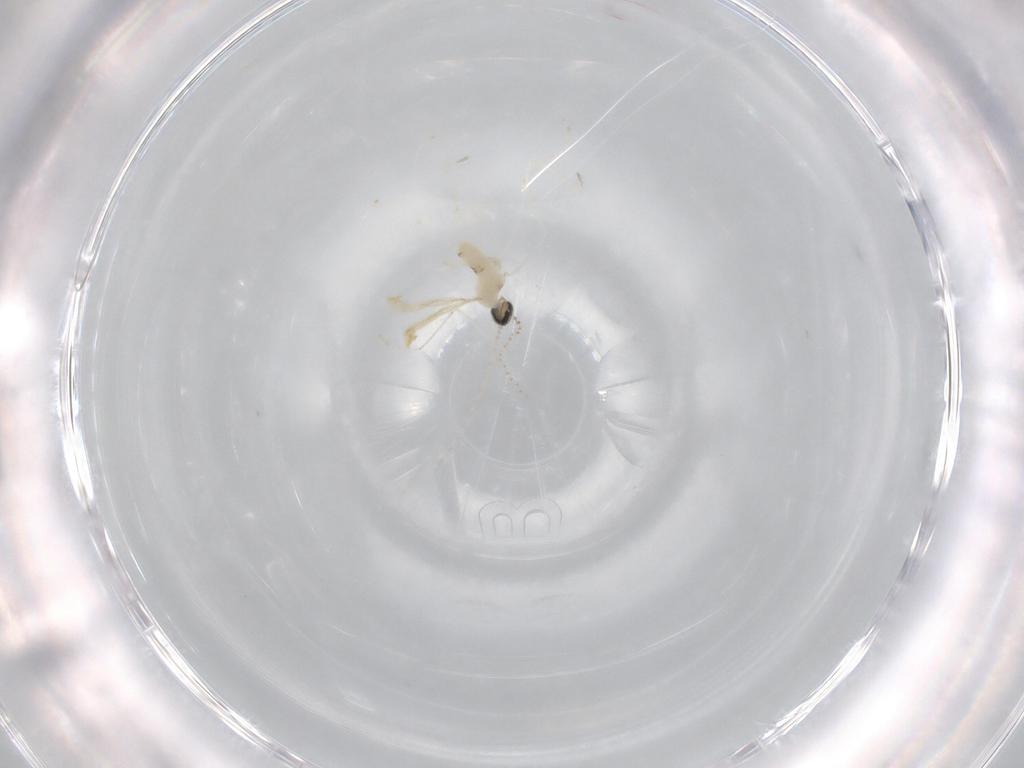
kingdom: Animalia
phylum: Arthropoda
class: Insecta
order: Diptera
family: Cecidomyiidae
